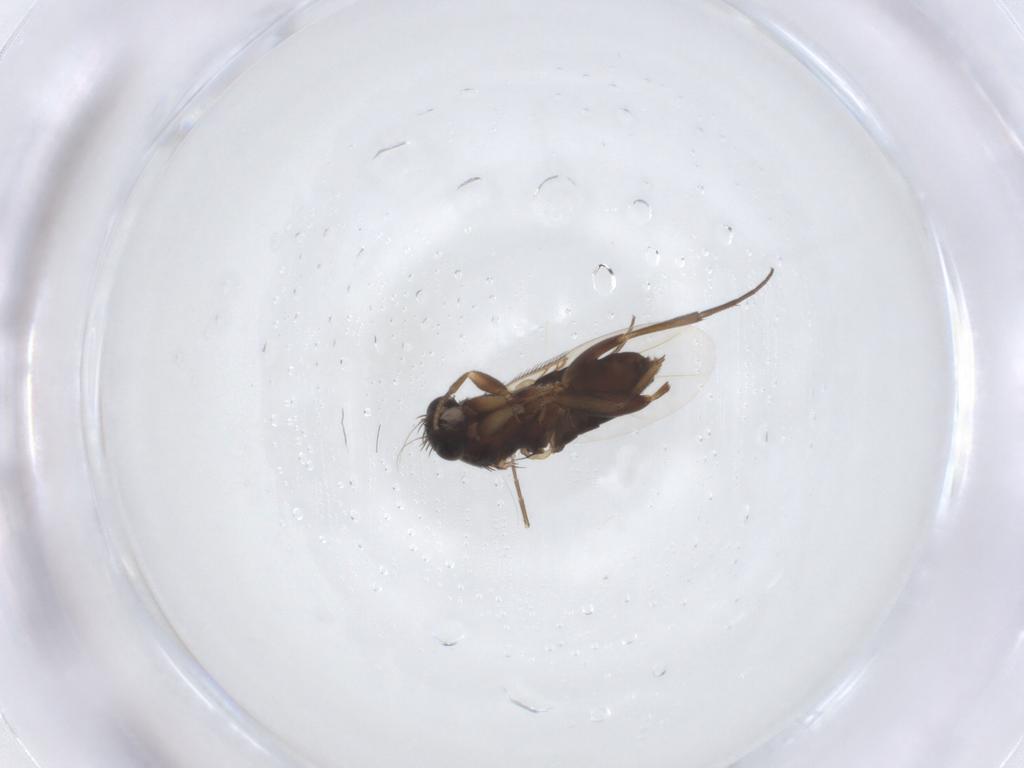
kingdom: Animalia
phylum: Arthropoda
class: Insecta
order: Diptera
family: Phoridae
